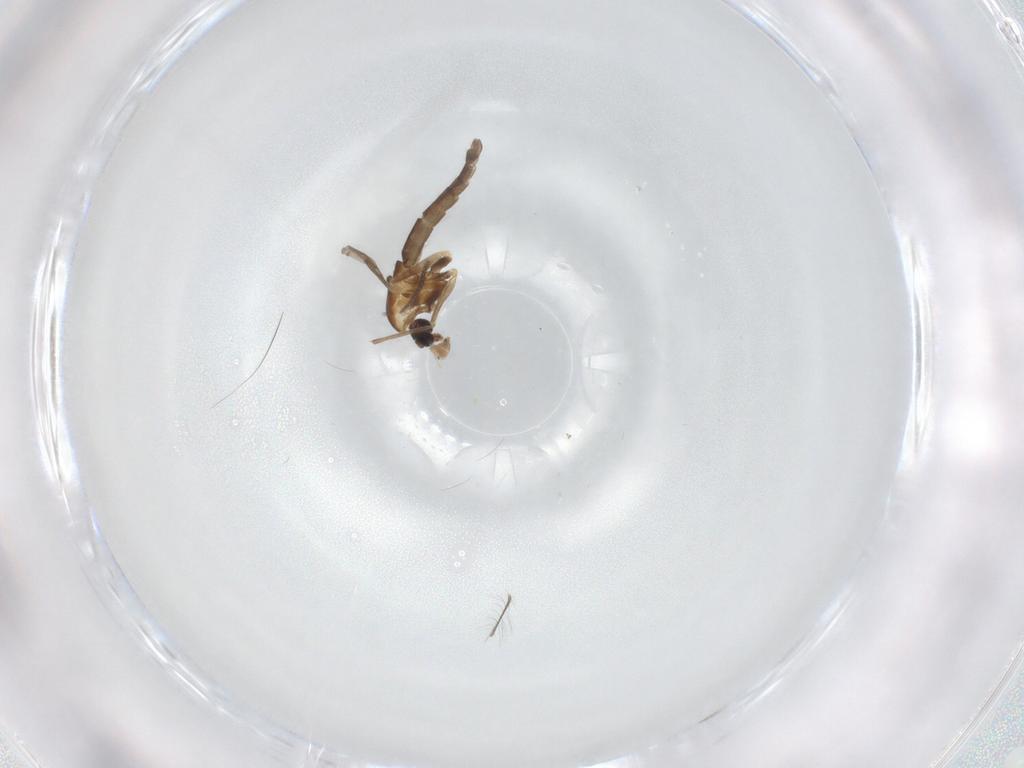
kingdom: Animalia
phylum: Arthropoda
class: Insecta
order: Diptera
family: Chironomidae
